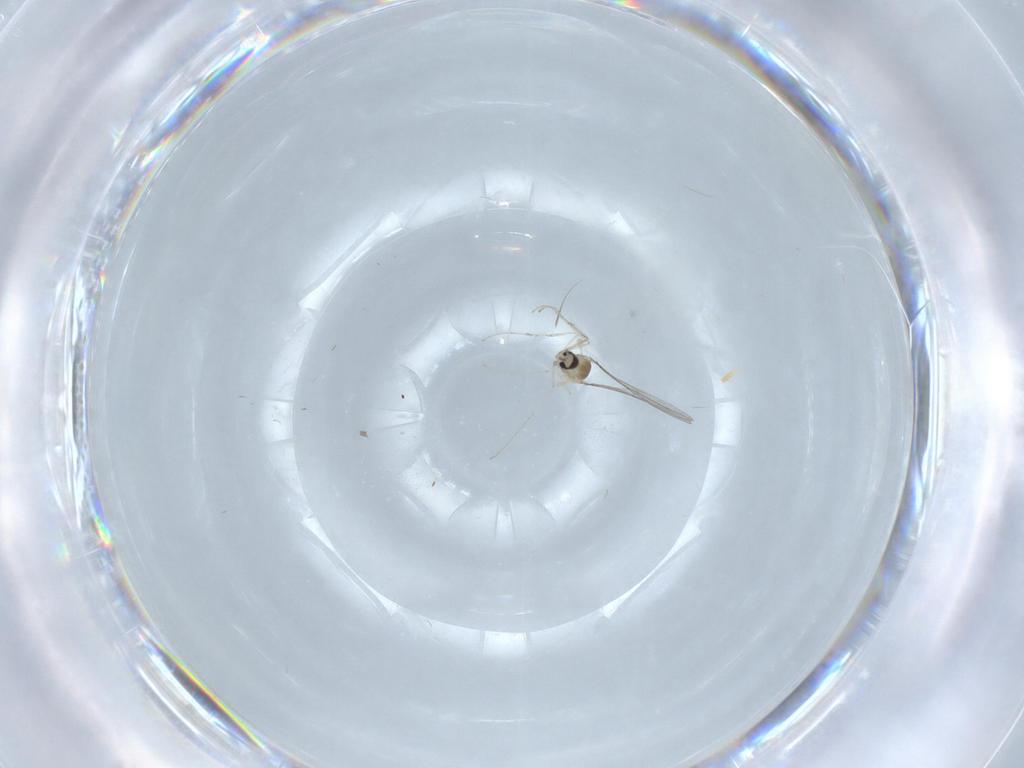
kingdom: Animalia
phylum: Arthropoda
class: Insecta
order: Diptera
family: Cecidomyiidae
